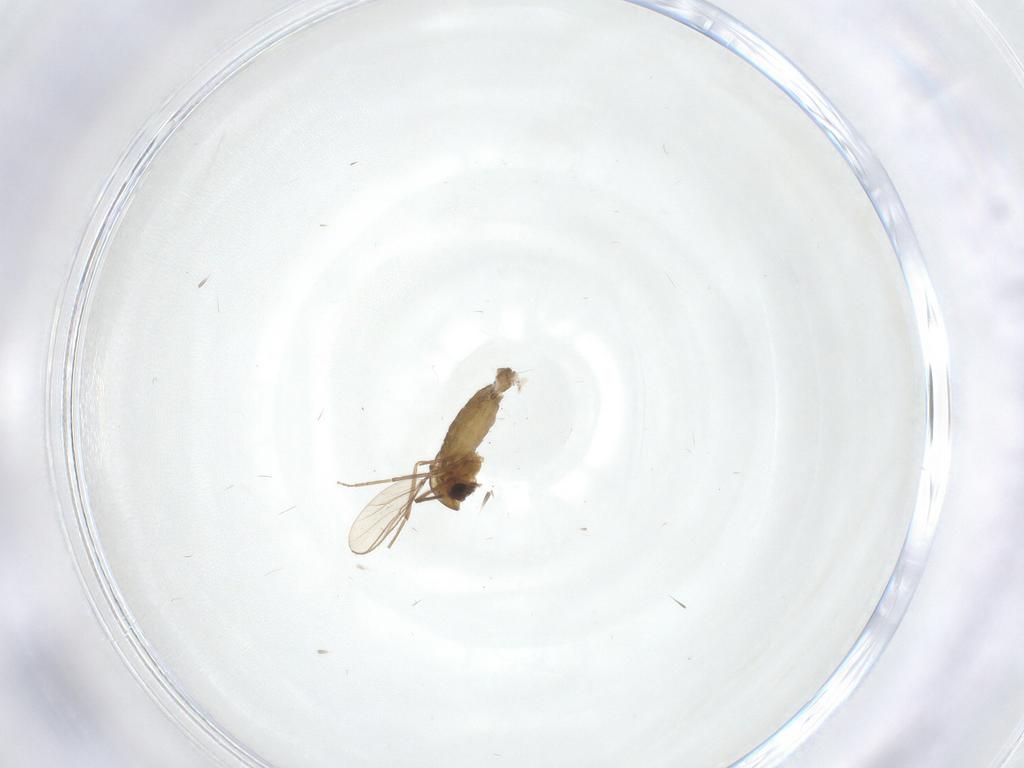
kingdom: Animalia
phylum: Arthropoda
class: Insecta
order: Diptera
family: Chironomidae
